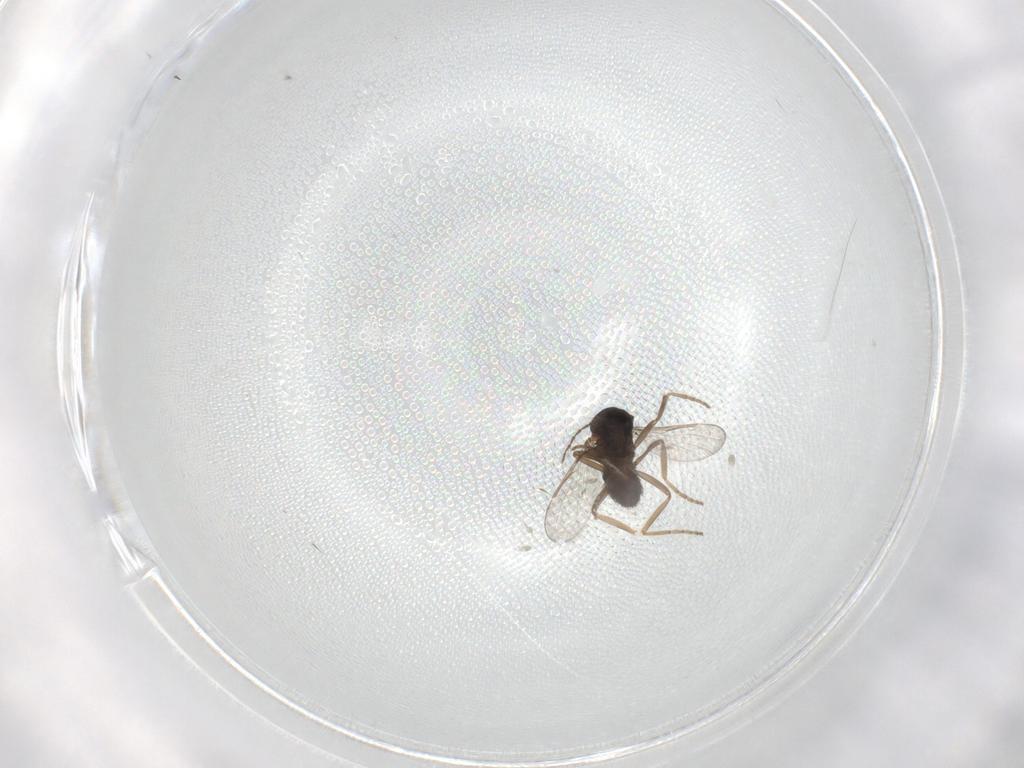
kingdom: Animalia
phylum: Arthropoda
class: Insecta
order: Diptera
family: Ceratopogonidae
